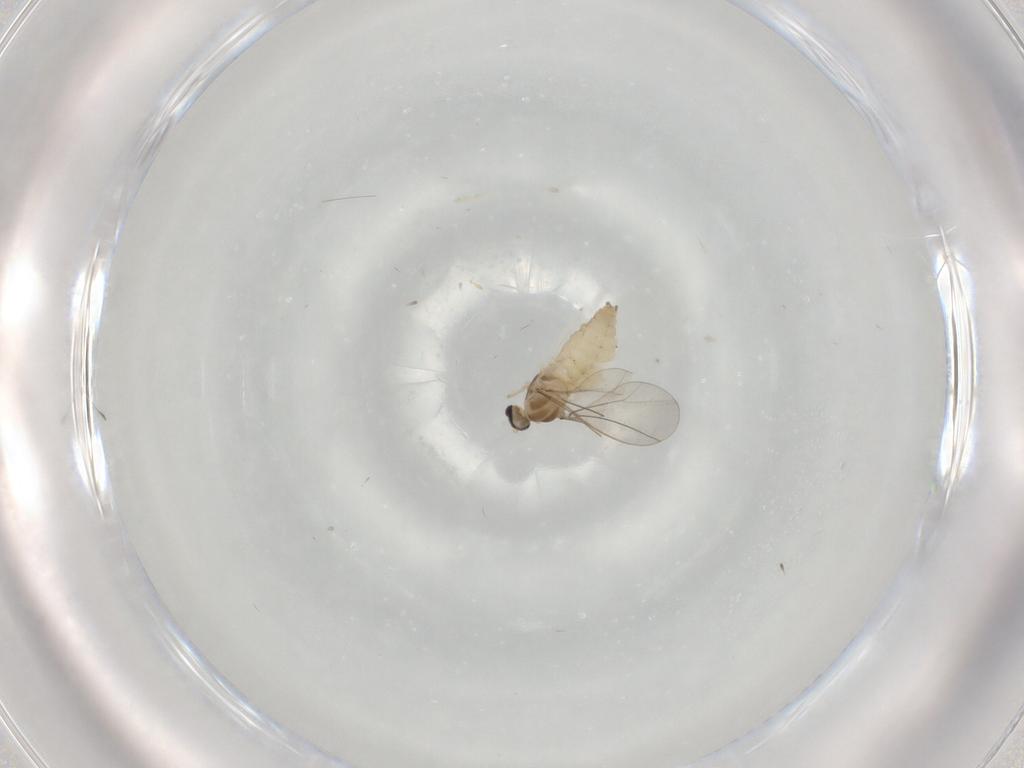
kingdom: Animalia
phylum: Arthropoda
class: Insecta
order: Diptera
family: Cecidomyiidae
